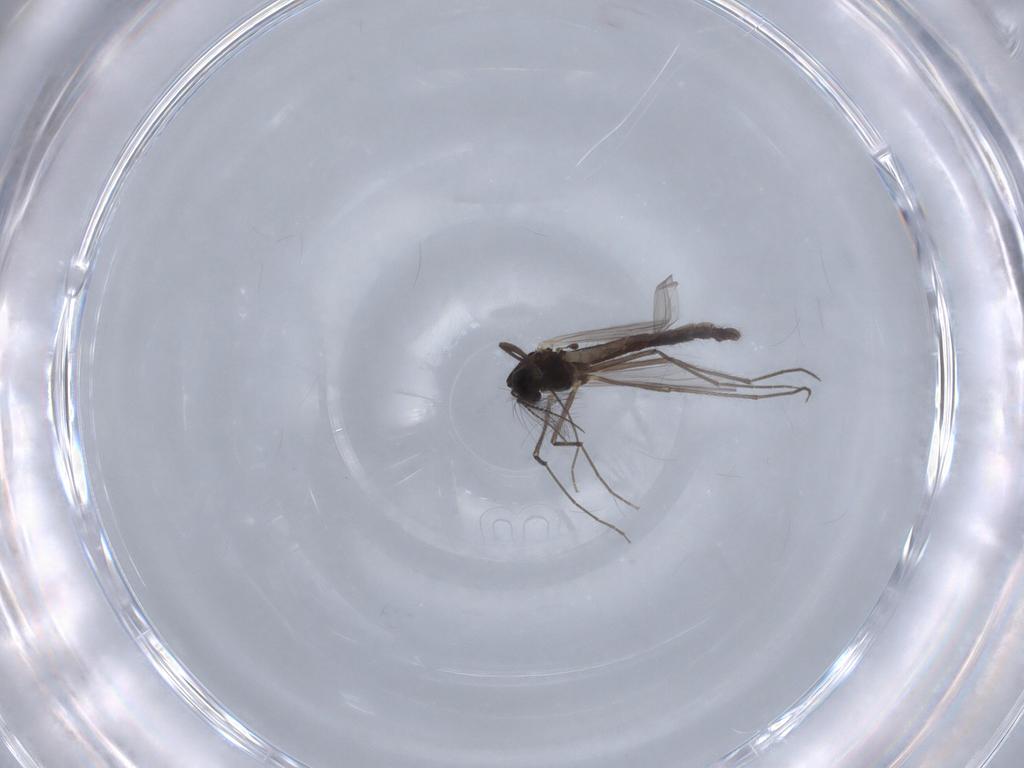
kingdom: Animalia
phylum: Arthropoda
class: Insecta
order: Diptera
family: Chironomidae
